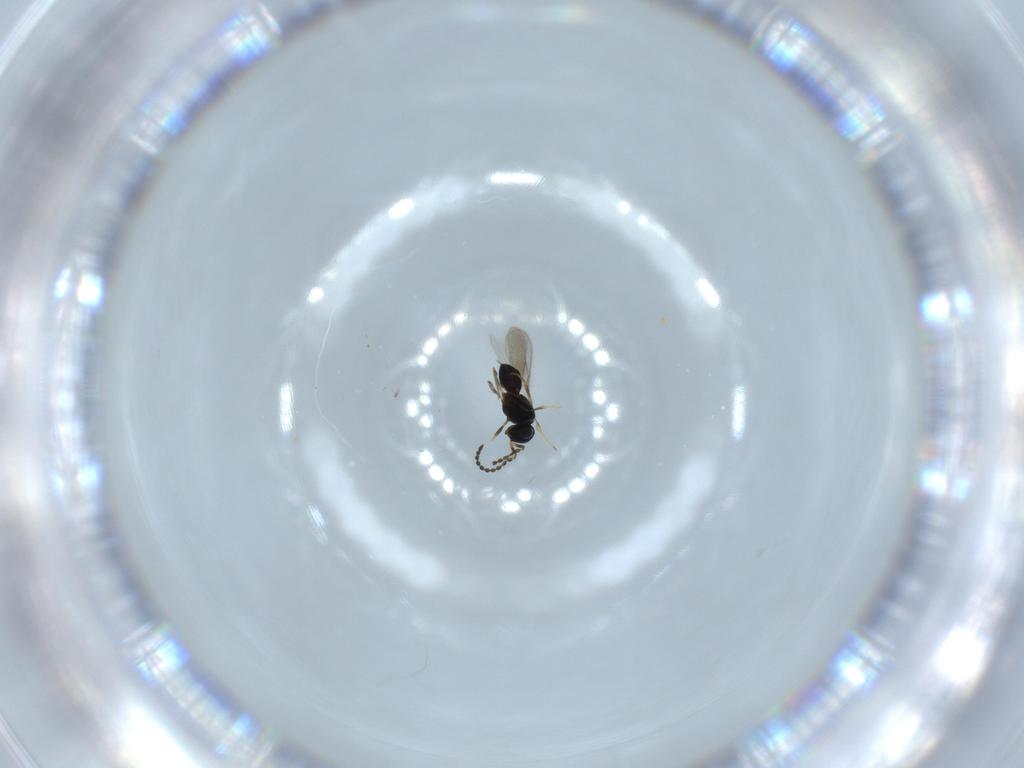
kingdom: Animalia
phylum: Arthropoda
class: Insecta
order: Hymenoptera
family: Scelionidae
